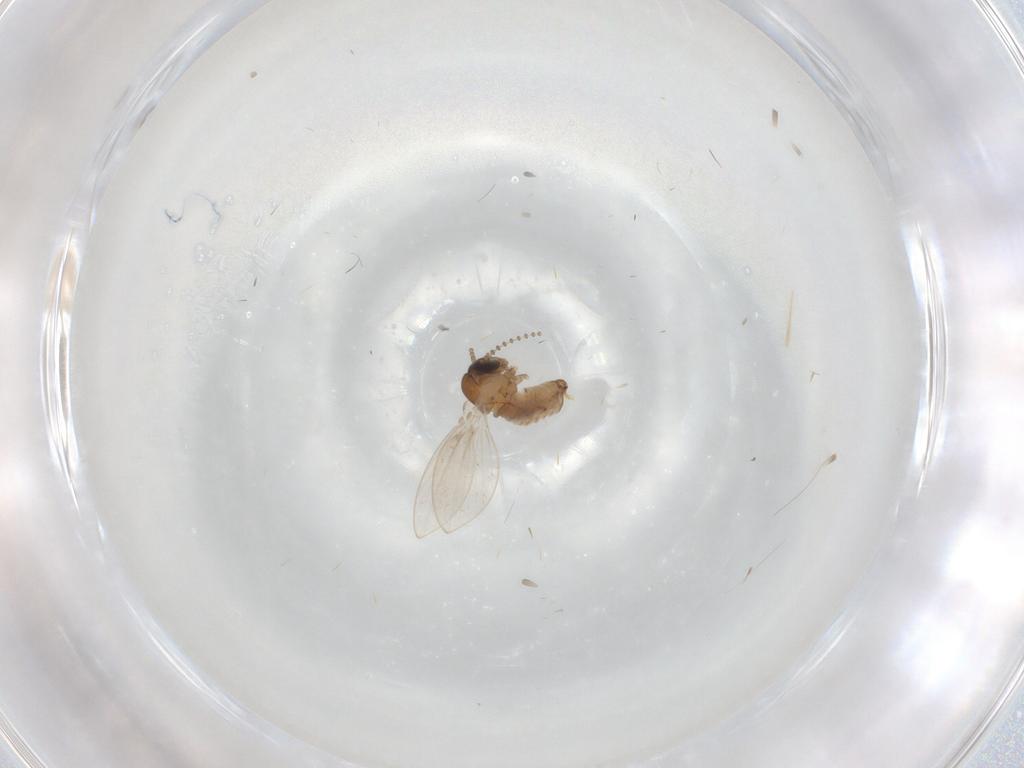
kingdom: Animalia
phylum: Arthropoda
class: Insecta
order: Diptera
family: Psychodidae
